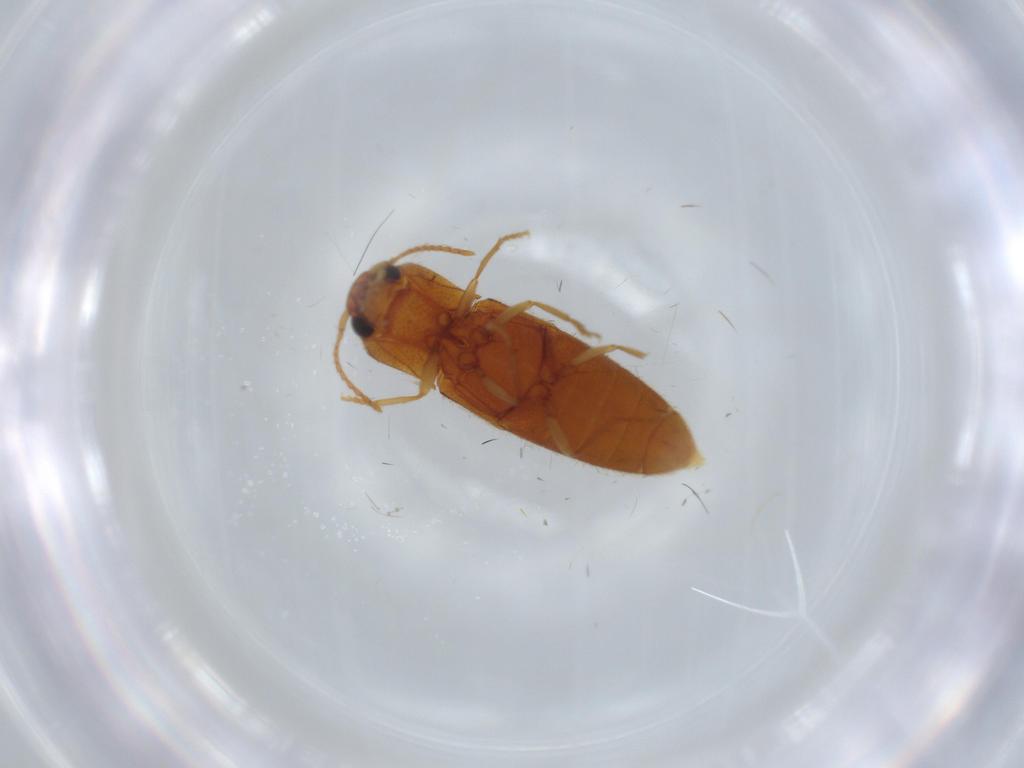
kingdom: Animalia
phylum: Arthropoda
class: Insecta
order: Coleoptera
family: Elateridae
